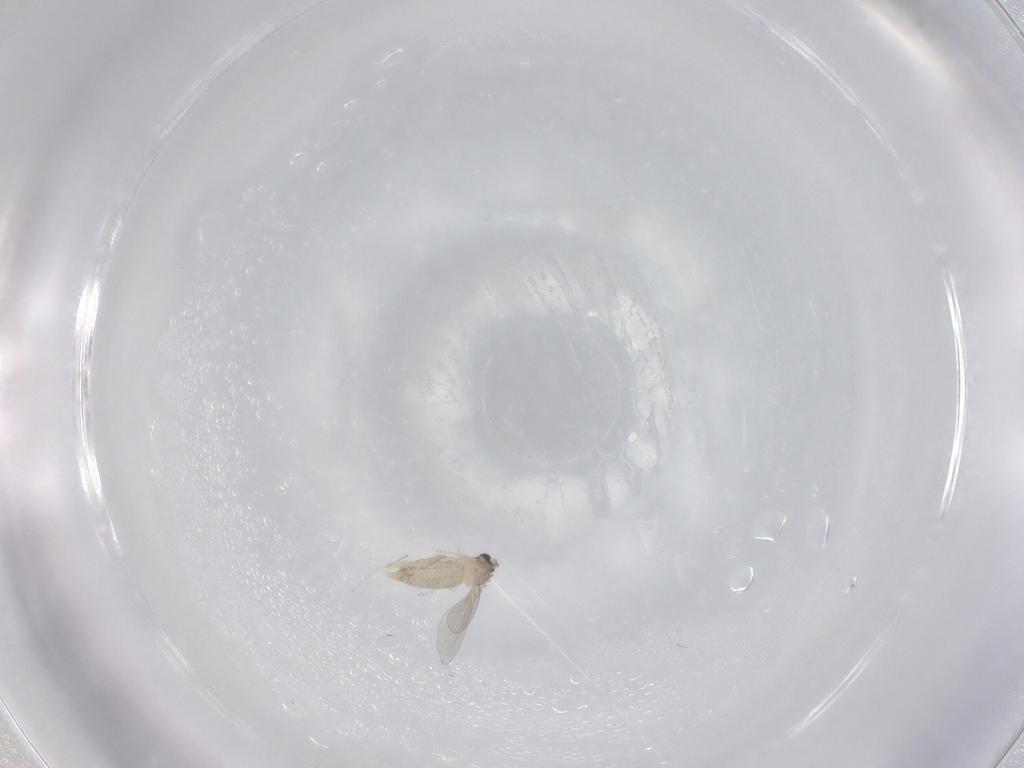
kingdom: Animalia
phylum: Arthropoda
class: Insecta
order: Diptera
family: Cecidomyiidae
